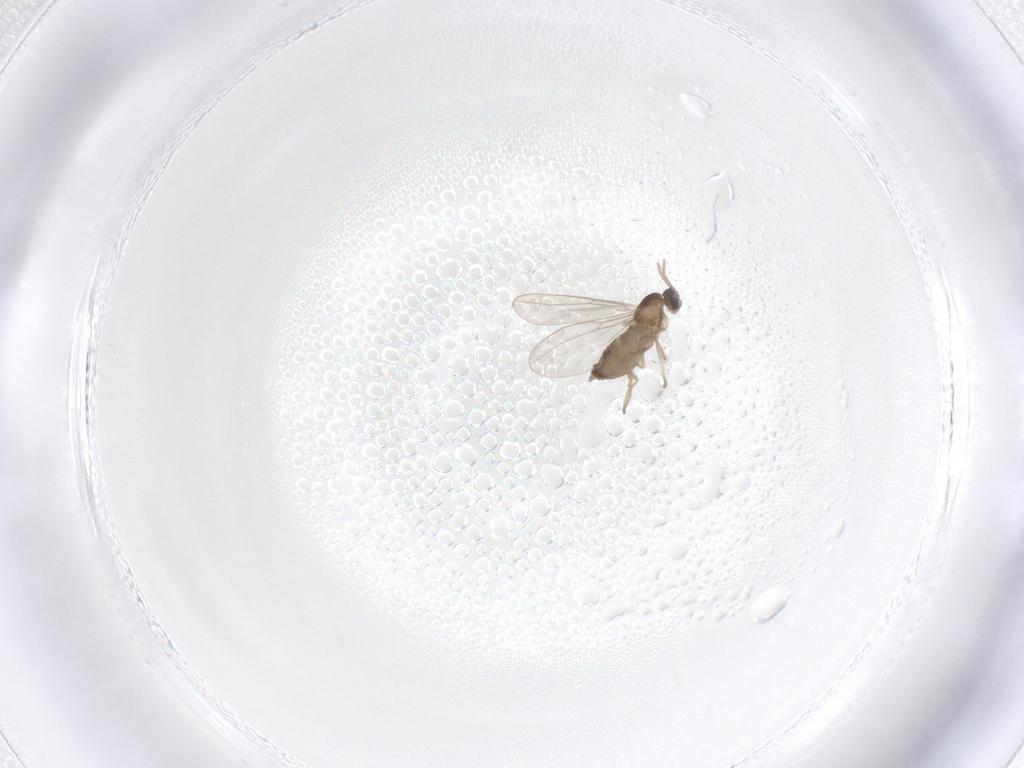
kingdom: Animalia
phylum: Arthropoda
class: Insecta
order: Diptera
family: Cecidomyiidae
